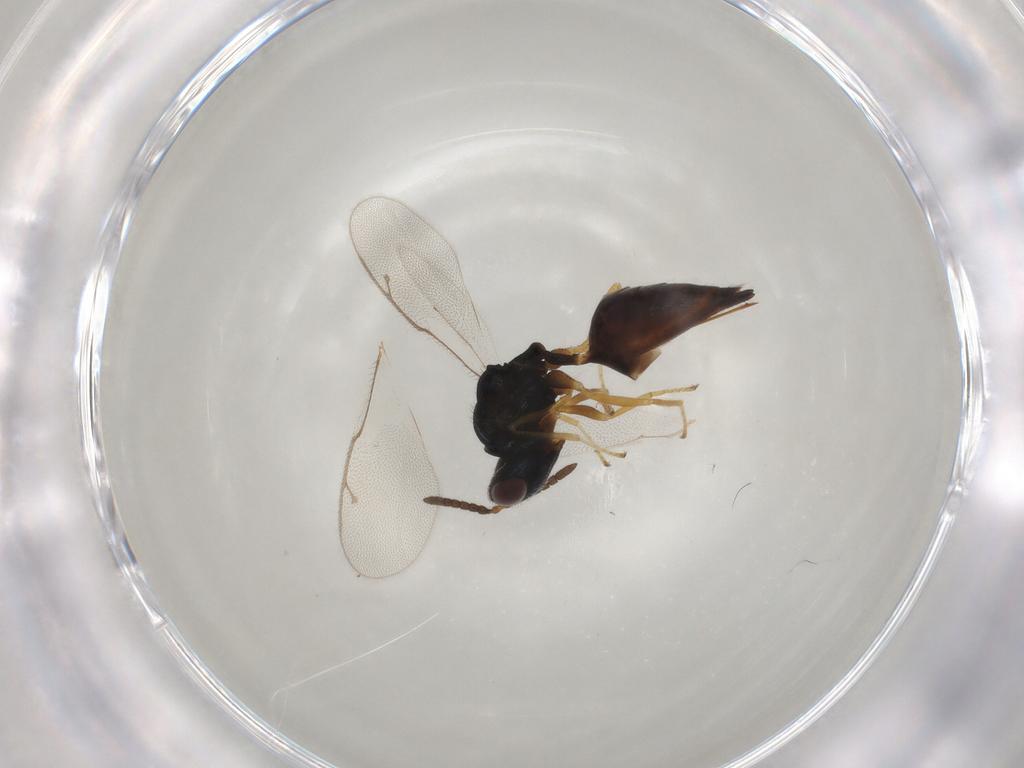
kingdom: Animalia
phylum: Arthropoda
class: Insecta
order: Hymenoptera
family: Pteromalidae
